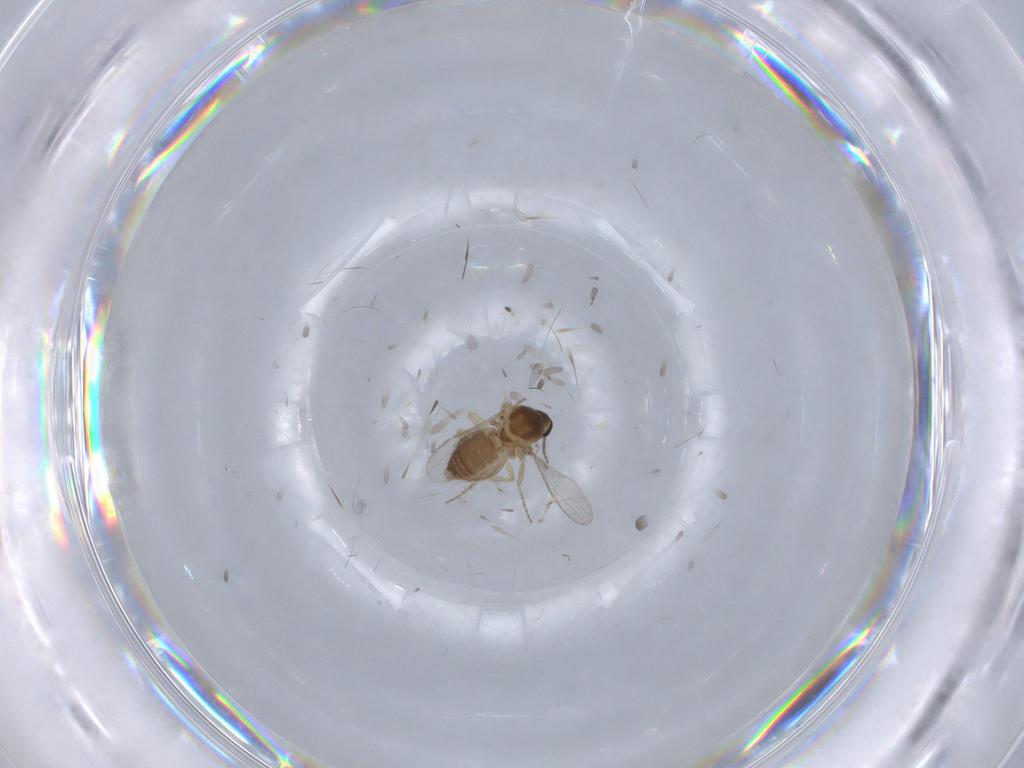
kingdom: Animalia
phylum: Arthropoda
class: Insecta
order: Diptera
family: Ceratopogonidae
